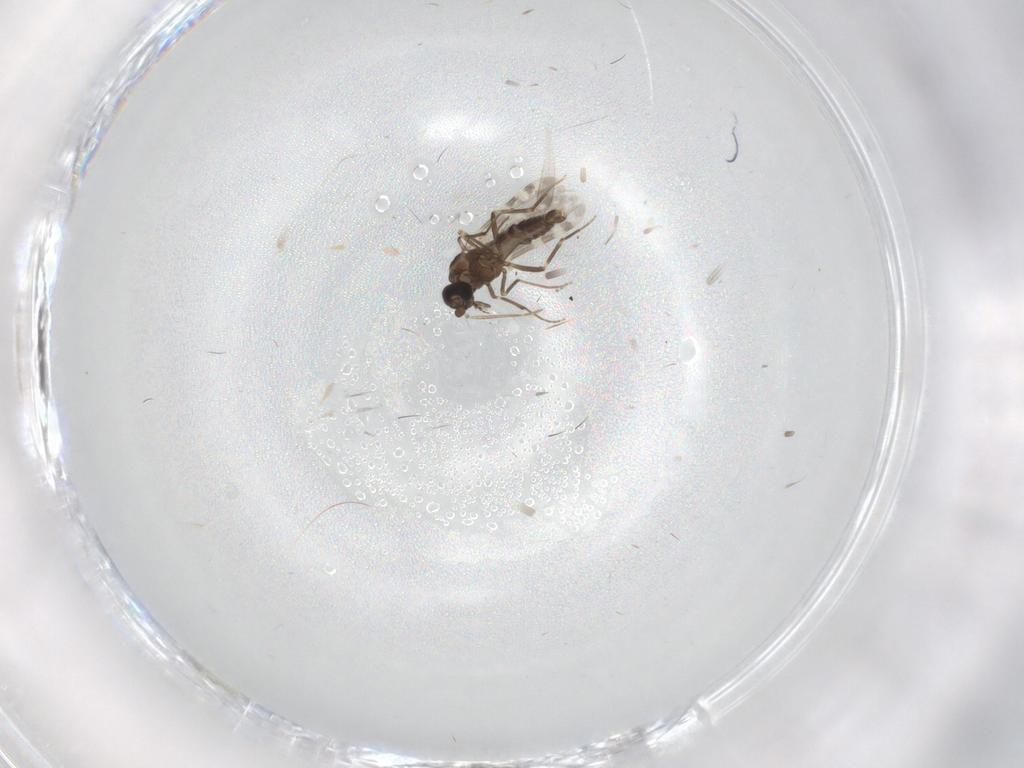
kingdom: Animalia
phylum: Arthropoda
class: Insecta
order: Diptera
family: Ceratopogonidae
